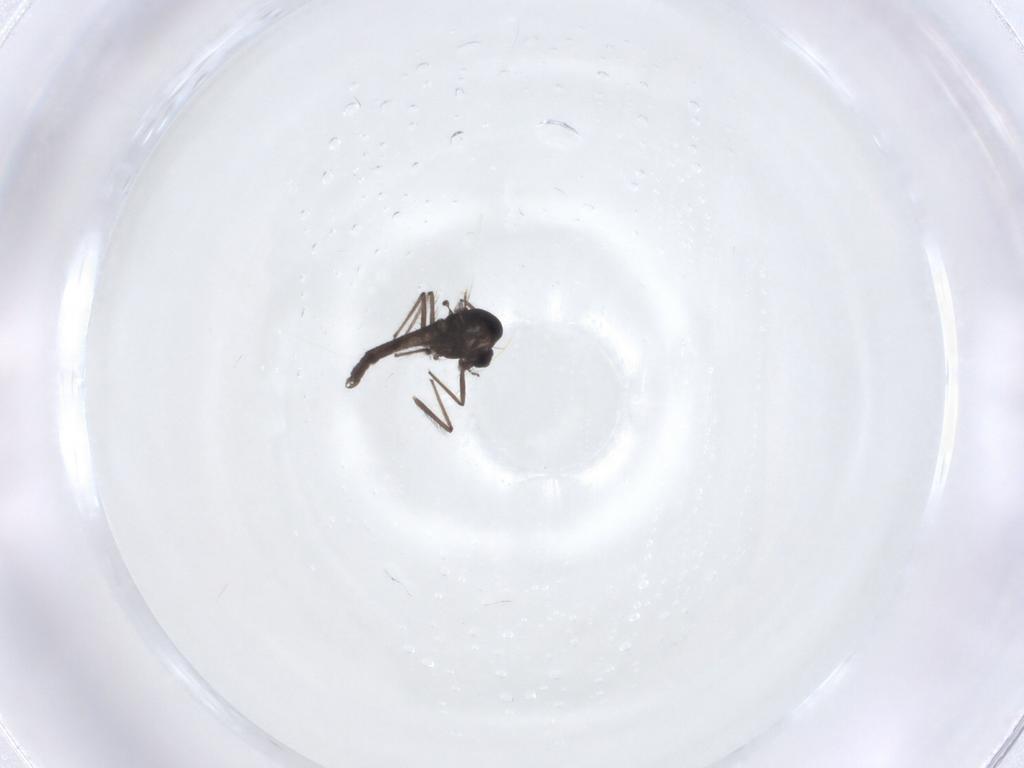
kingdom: Animalia
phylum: Arthropoda
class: Insecta
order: Diptera
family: Chironomidae
